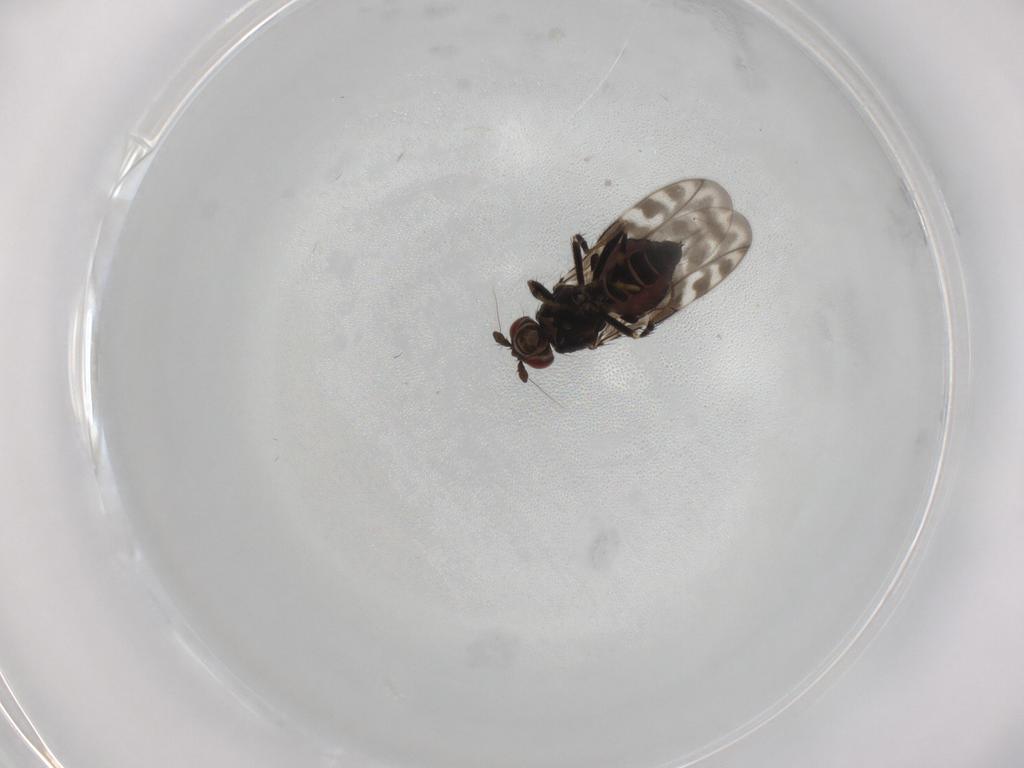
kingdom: Animalia
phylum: Arthropoda
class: Insecta
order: Diptera
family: Sphaeroceridae
